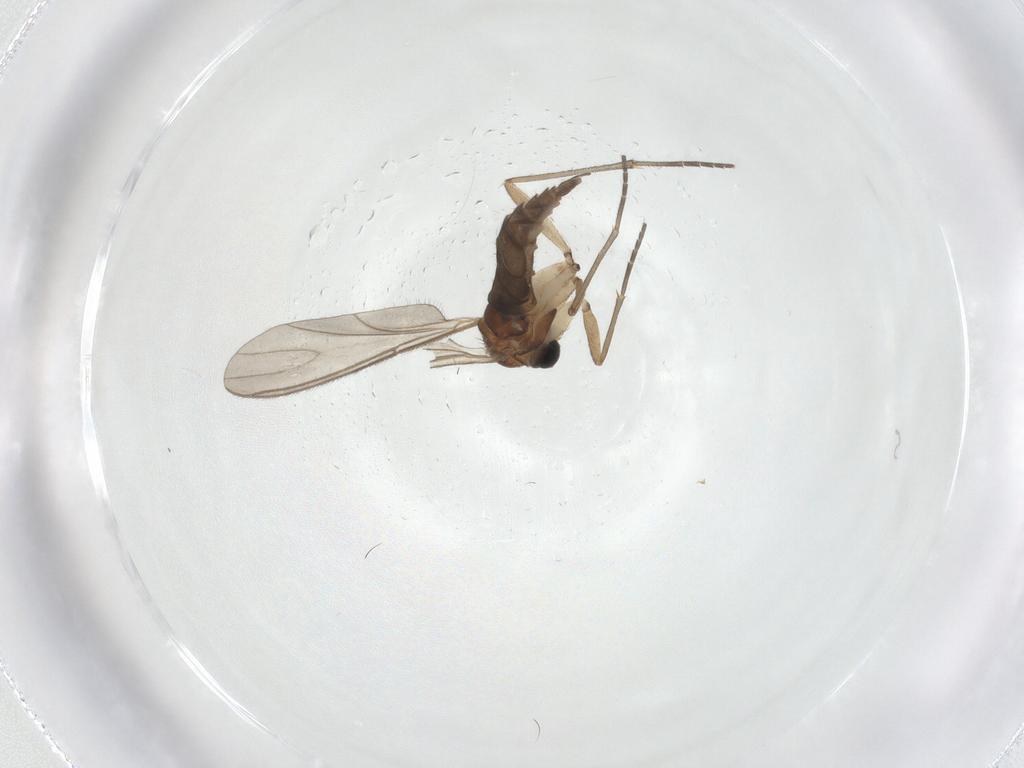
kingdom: Animalia
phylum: Arthropoda
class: Insecta
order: Diptera
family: Sciaridae
